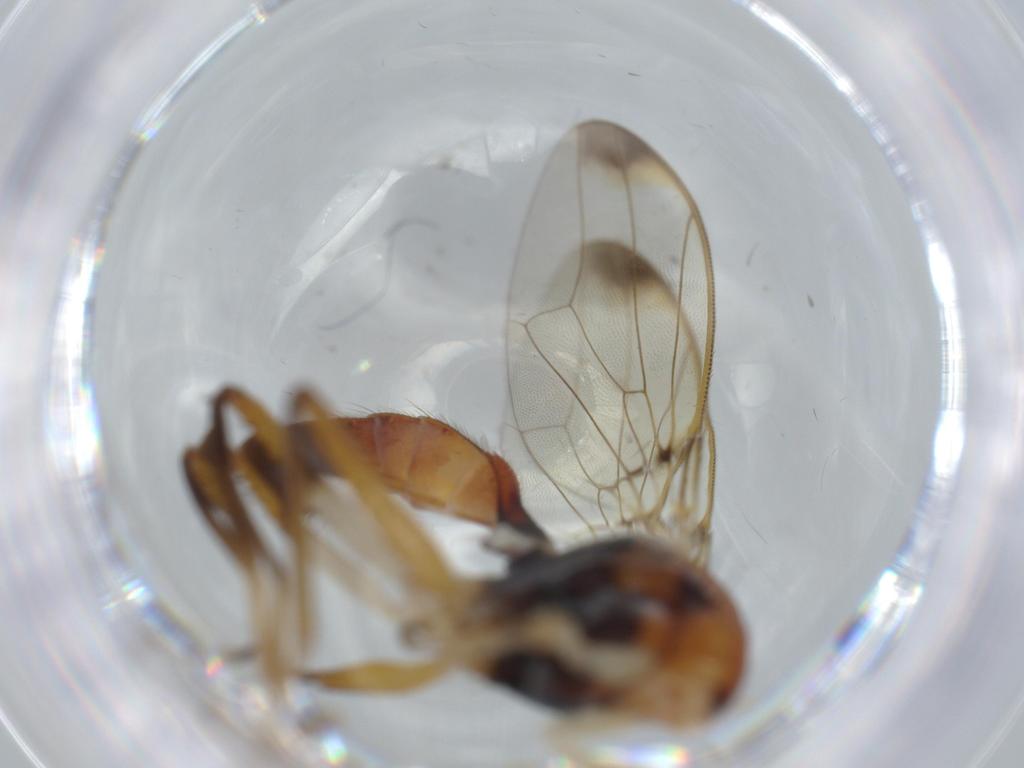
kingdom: Animalia
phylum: Arthropoda
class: Insecta
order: Diptera
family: Richardiidae
